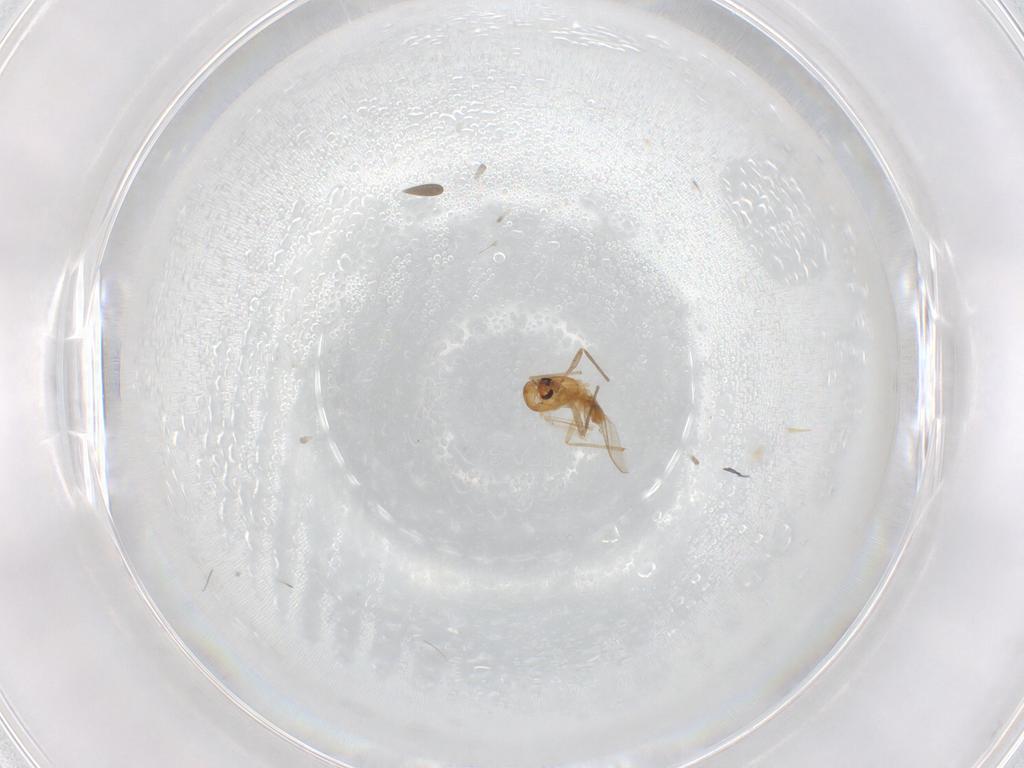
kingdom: Animalia
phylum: Arthropoda
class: Insecta
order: Diptera
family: Chironomidae
